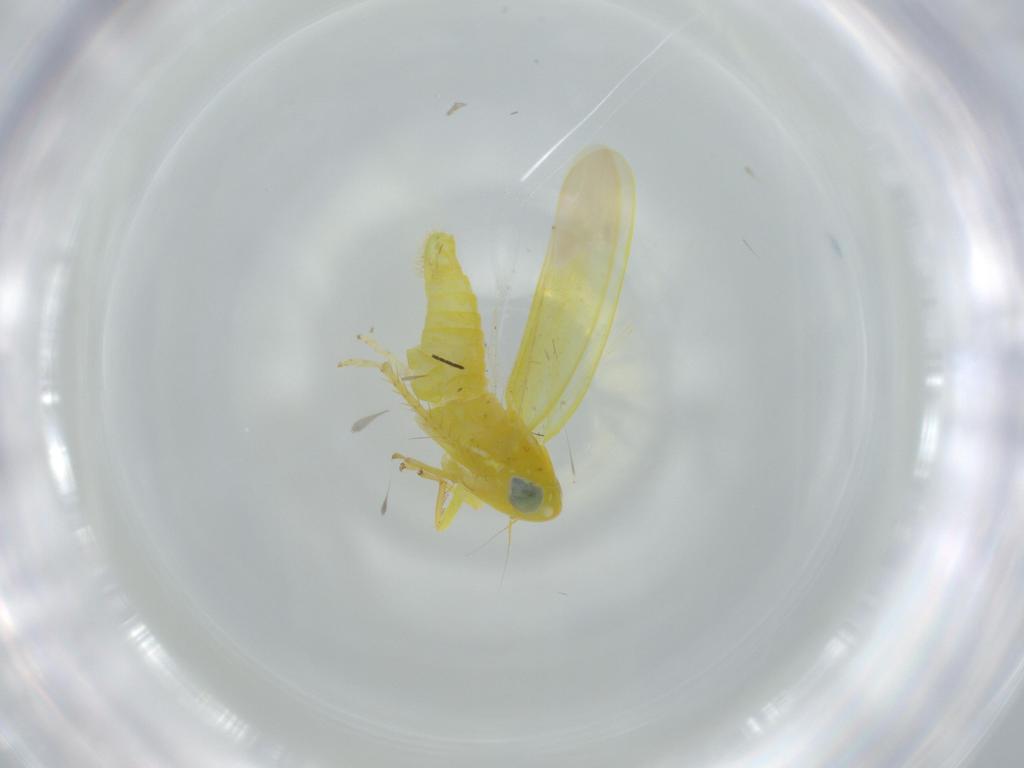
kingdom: Animalia
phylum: Arthropoda
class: Insecta
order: Hemiptera
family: Cicadellidae
